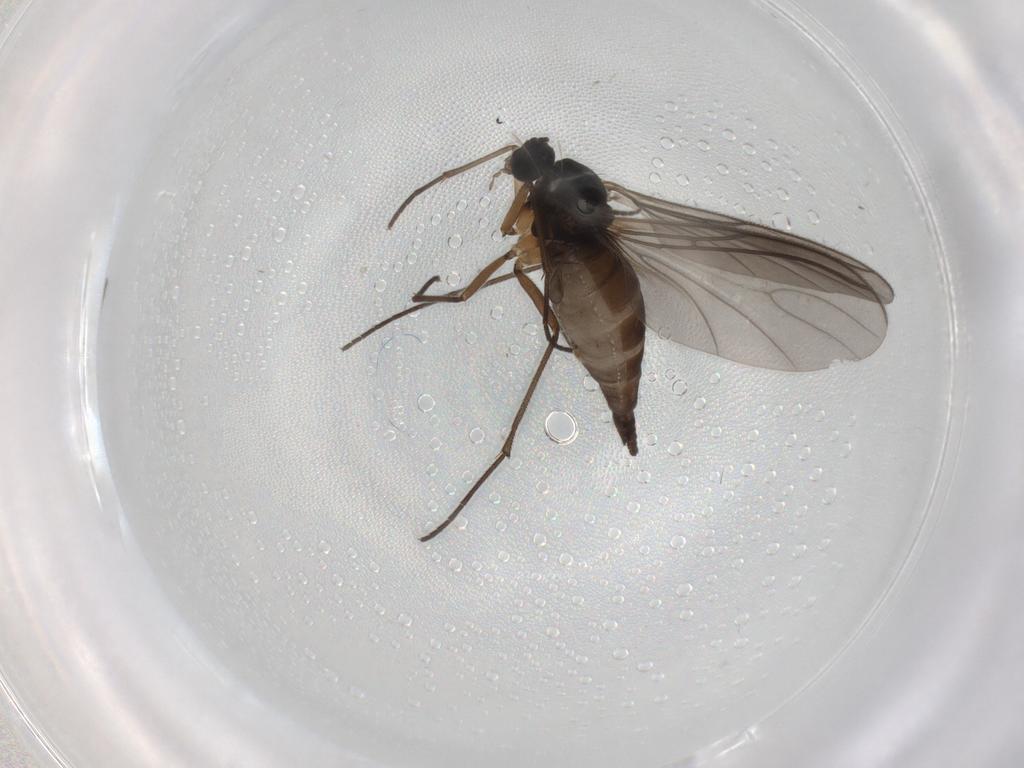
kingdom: Animalia
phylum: Arthropoda
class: Insecta
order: Diptera
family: Sciaridae
